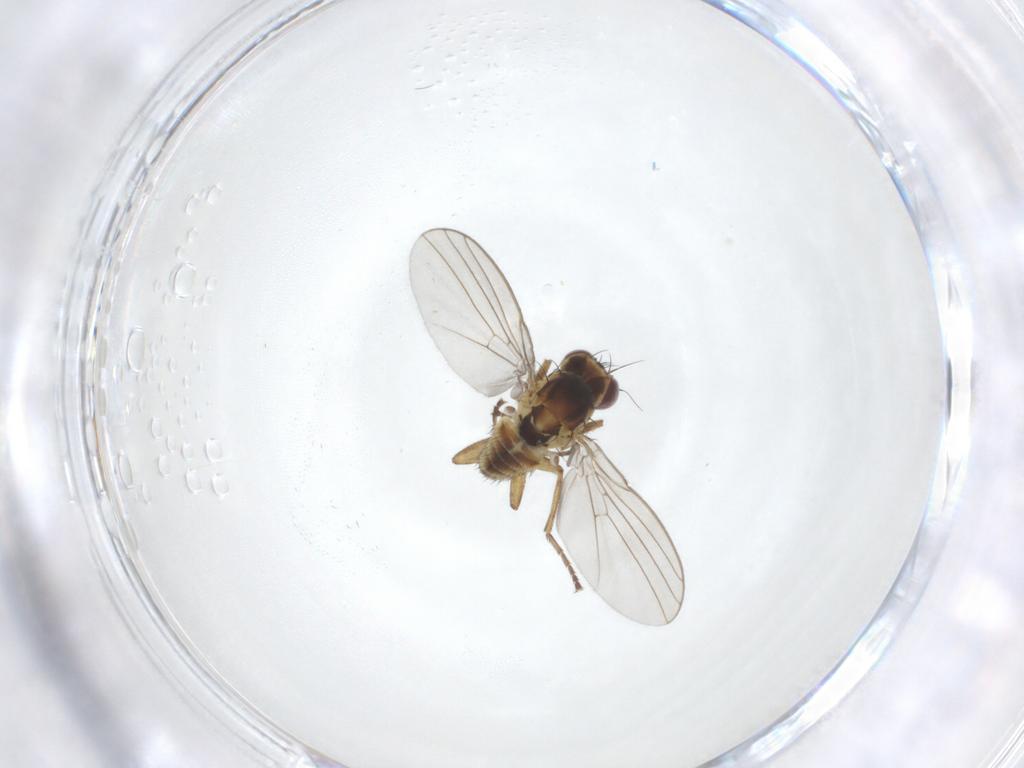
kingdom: Animalia
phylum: Arthropoda
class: Insecta
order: Diptera
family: Agromyzidae
